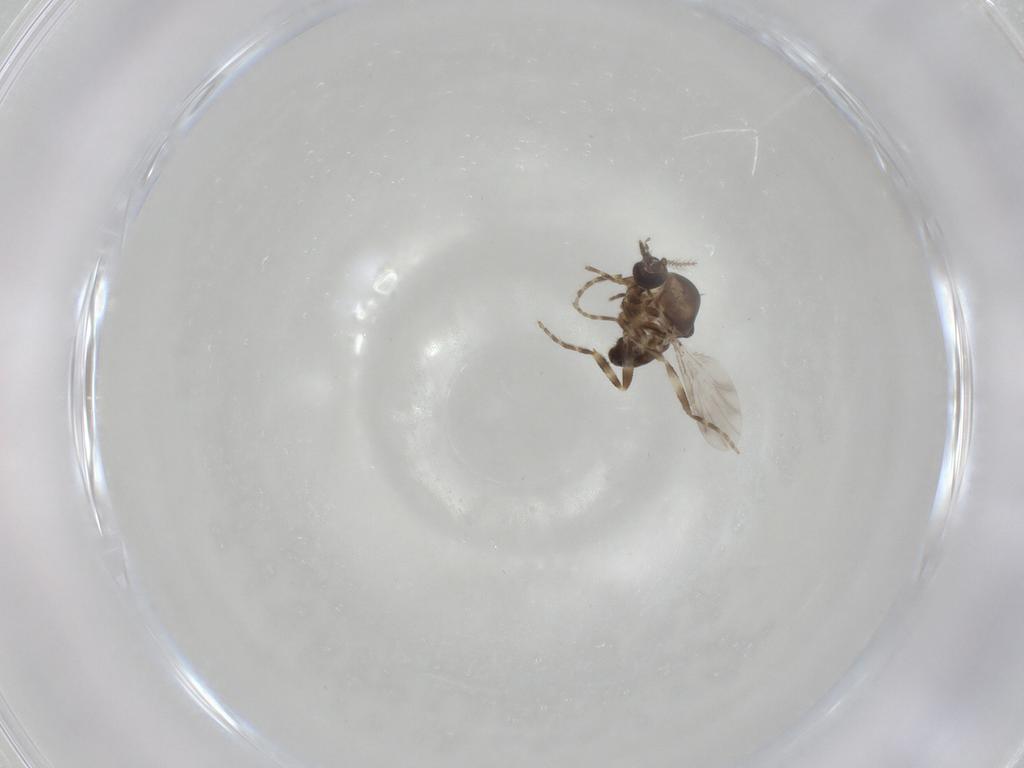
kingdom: Animalia
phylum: Arthropoda
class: Insecta
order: Diptera
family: Ceratopogonidae
